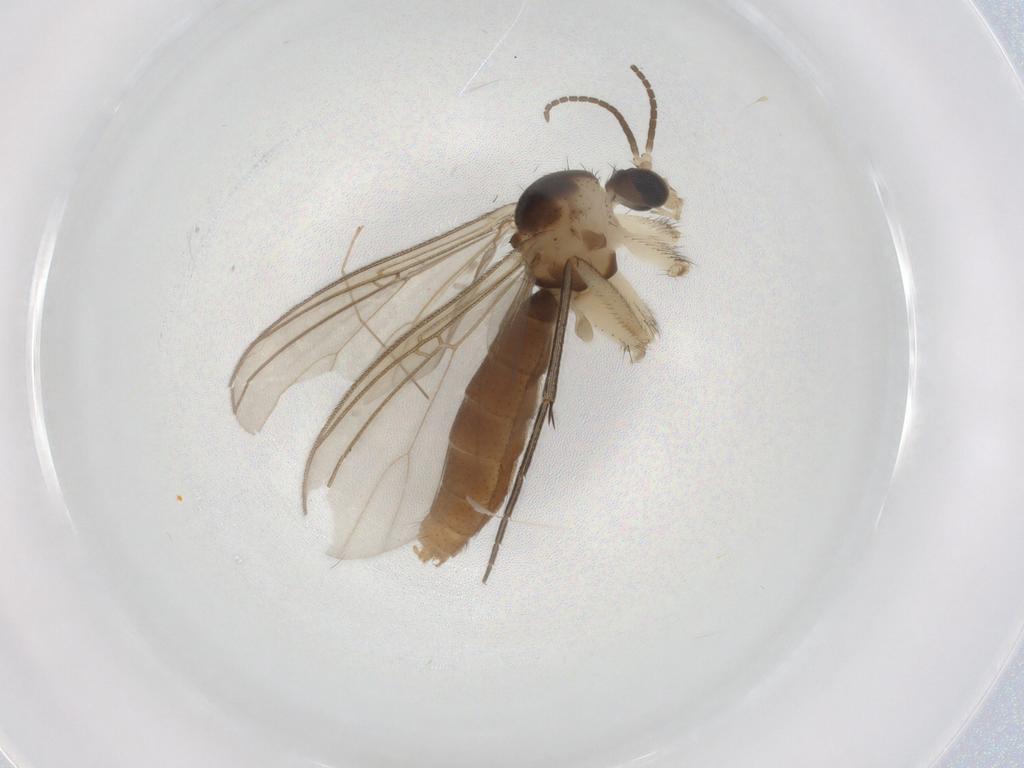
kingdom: Animalia
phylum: Arthropoda
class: Insecta
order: Diptera
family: Mycetophilidae
